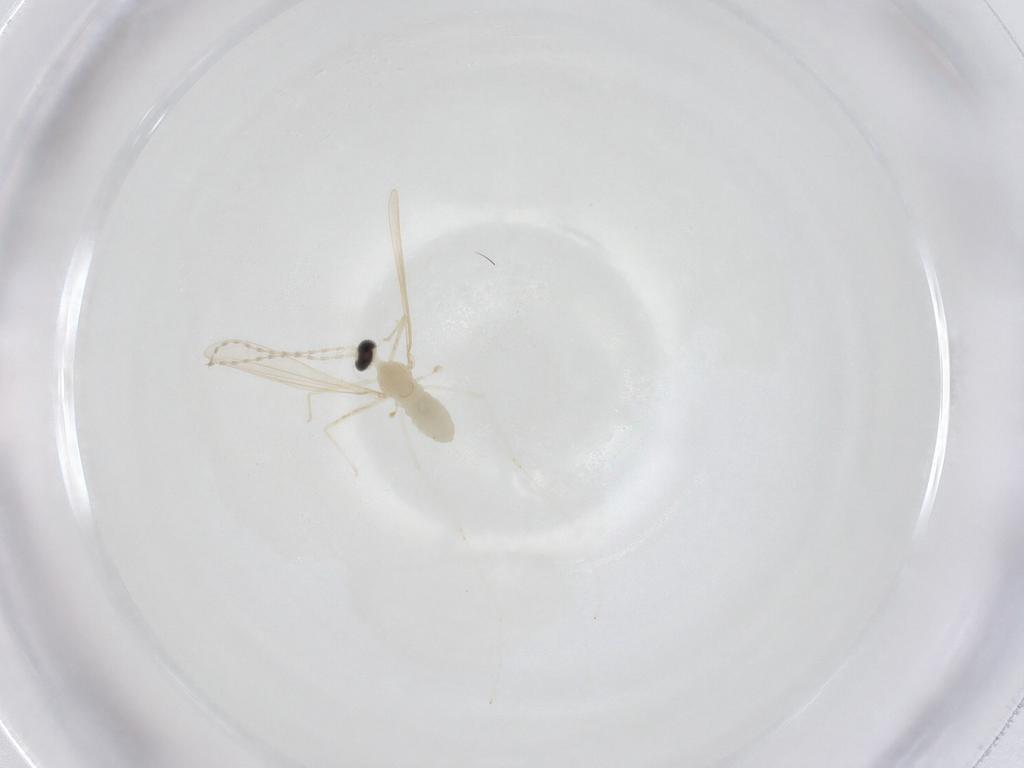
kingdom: Animalia
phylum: Arthropoda
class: Insecta
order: Diptera
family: Cecidomyiidae
